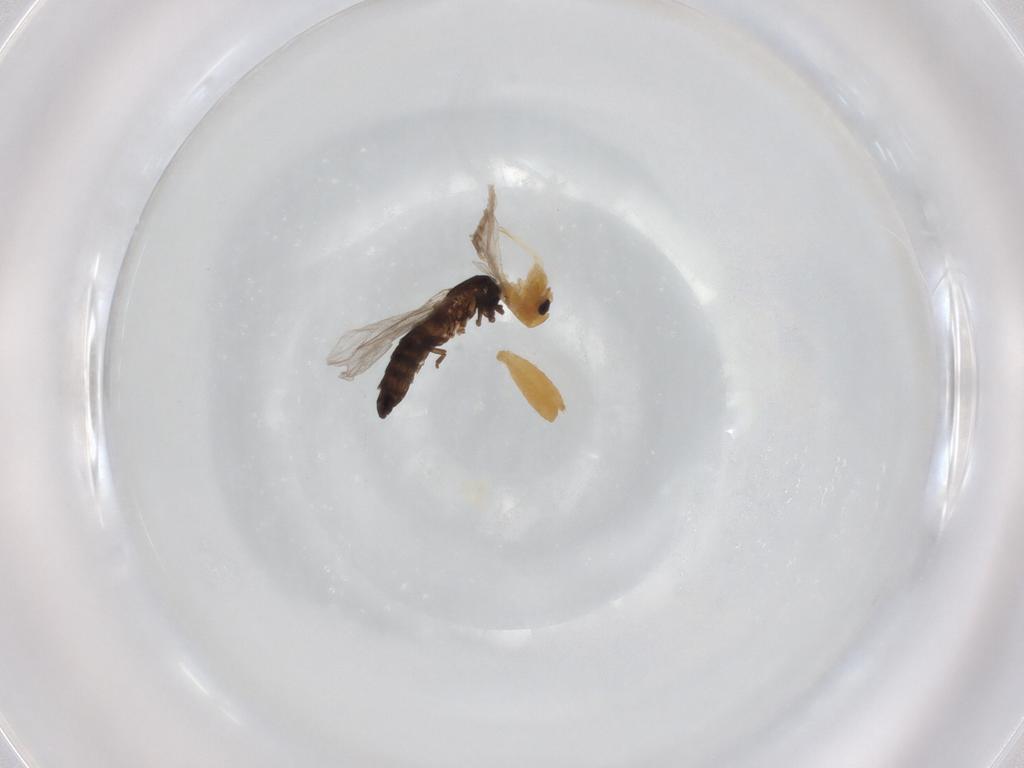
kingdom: Animalia
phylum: Arthropoda
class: Insecta
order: Diptera
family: Scatopsidae
